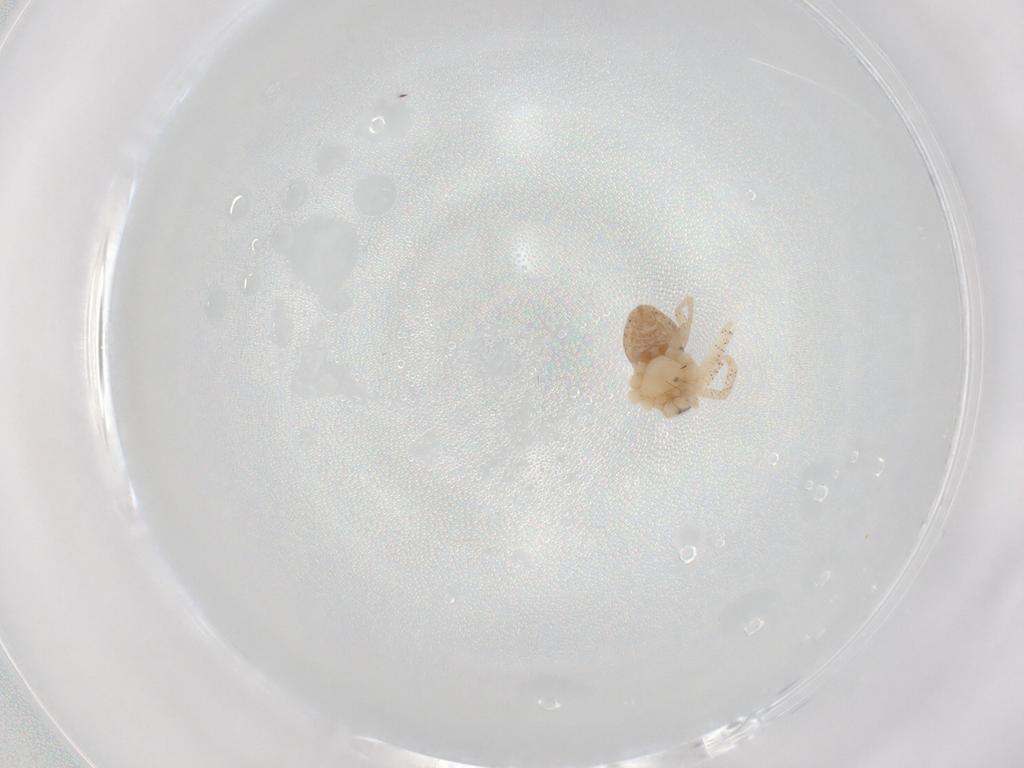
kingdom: Animalia
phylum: Arthropoda
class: Arachnida
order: Araneae
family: Philodromidae
